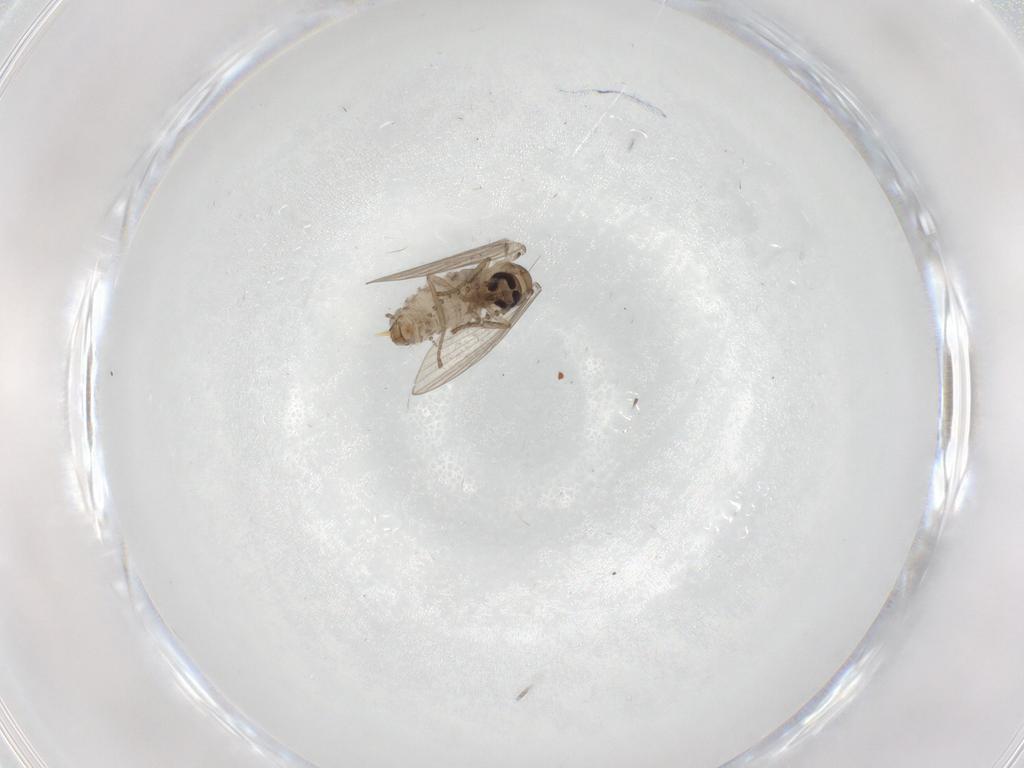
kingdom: Animalia
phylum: Arthropoda
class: Insecta
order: Diptera
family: Psychodidae
